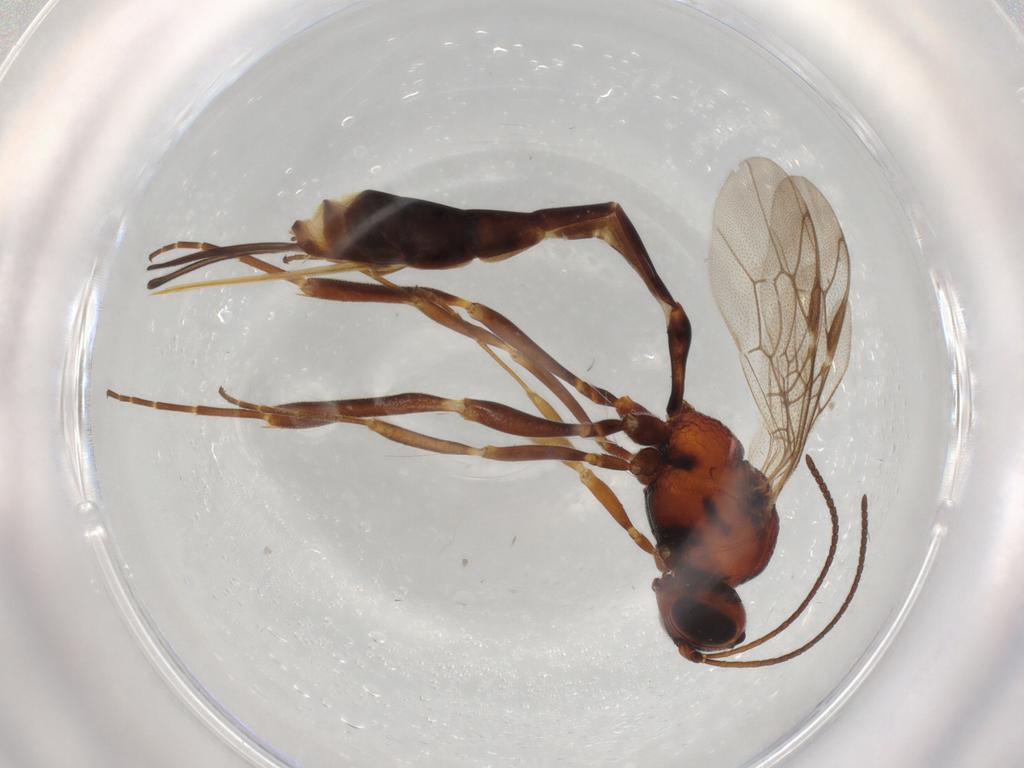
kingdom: Animalia
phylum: Arthropoda
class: Insecta
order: Hymenoptera
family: Ichneumonidae
